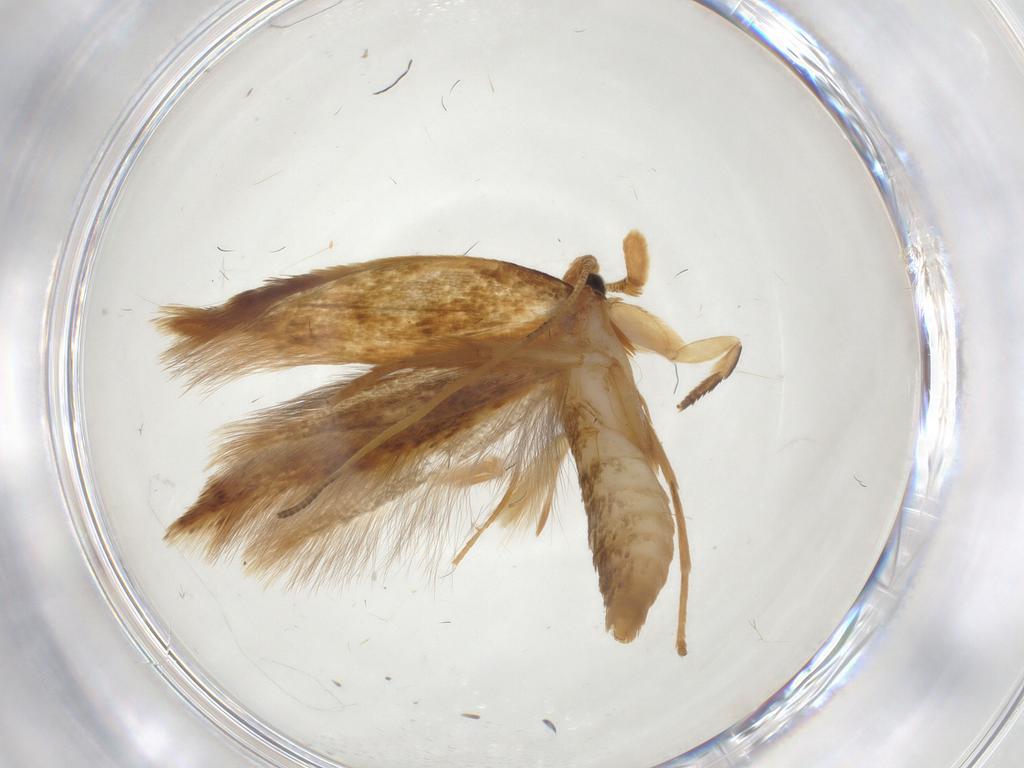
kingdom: Animalia
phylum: Arthropoda
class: Insecta
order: Lepidoptera
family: Tineidae
